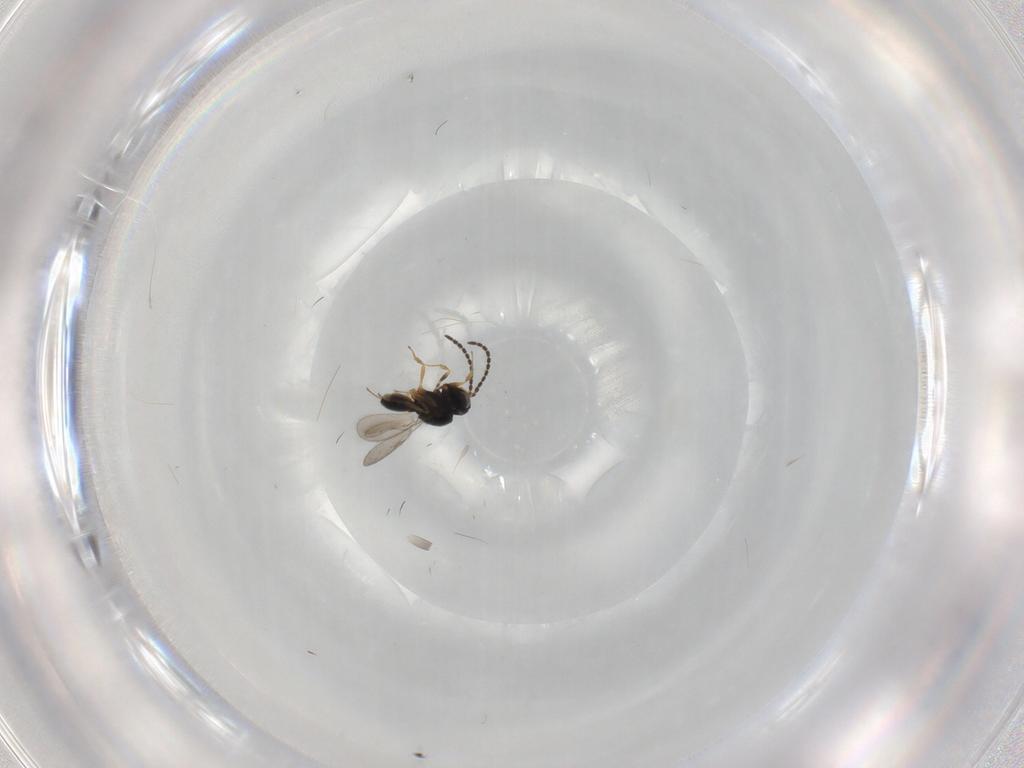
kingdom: Animalia
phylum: Arthropoda
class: Insecta
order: Hymenoptera
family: Scelionidae
